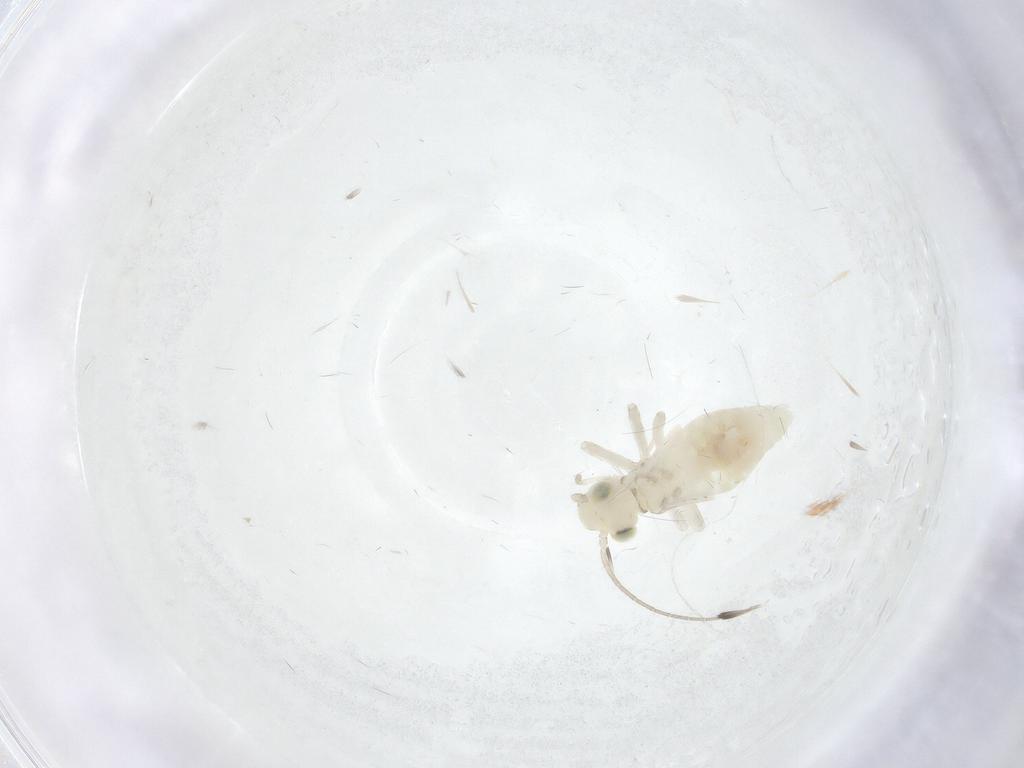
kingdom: Animalia
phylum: Arthropoda
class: Insecta
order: Psocodea
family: Caeciliusidae
